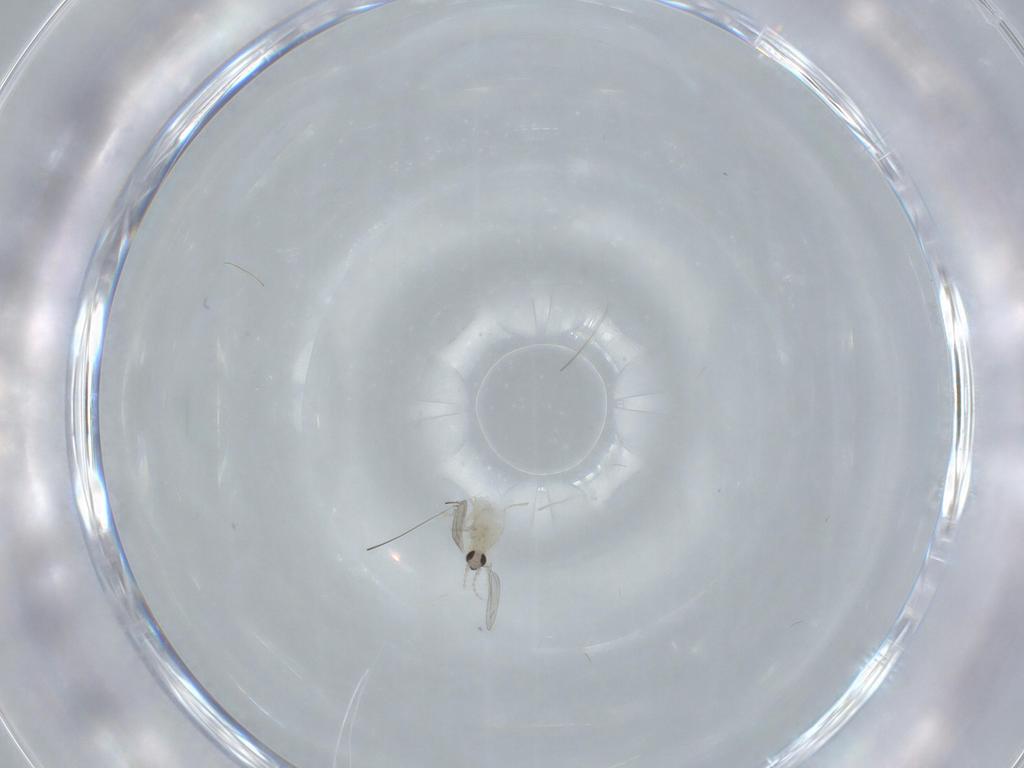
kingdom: Animalia
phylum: Arthropoda
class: Insecta
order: Diptera
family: Cecidomyiidae
